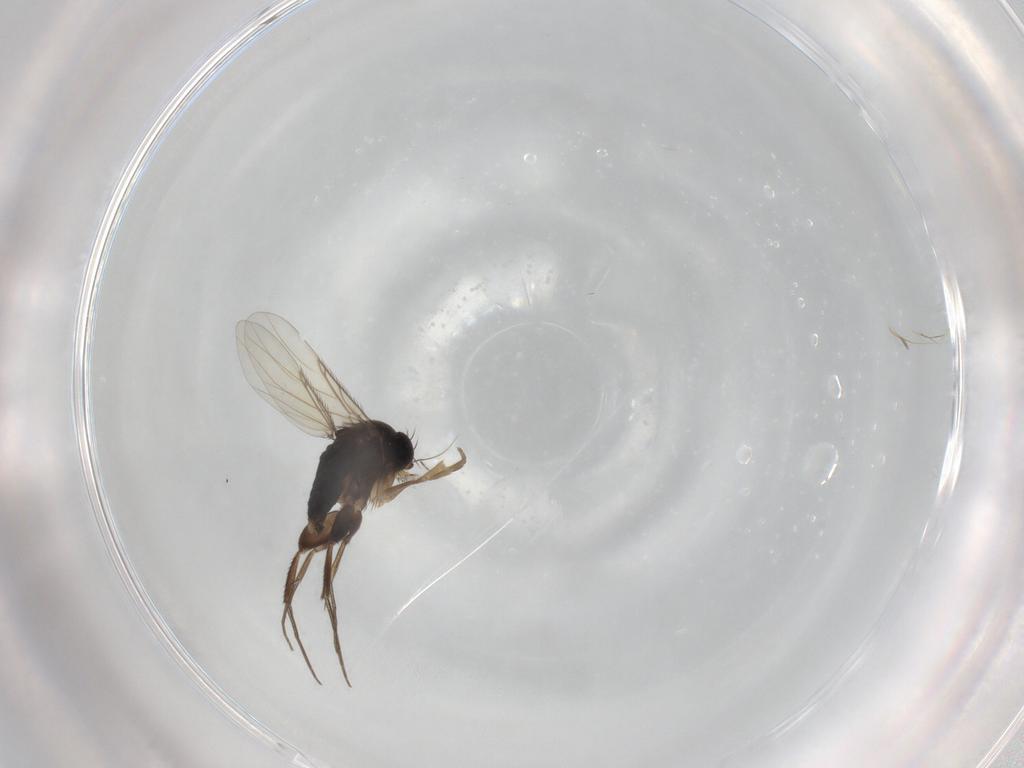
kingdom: Animalia
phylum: Arthropoda
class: Insecta
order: Diptera
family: Phoridae
